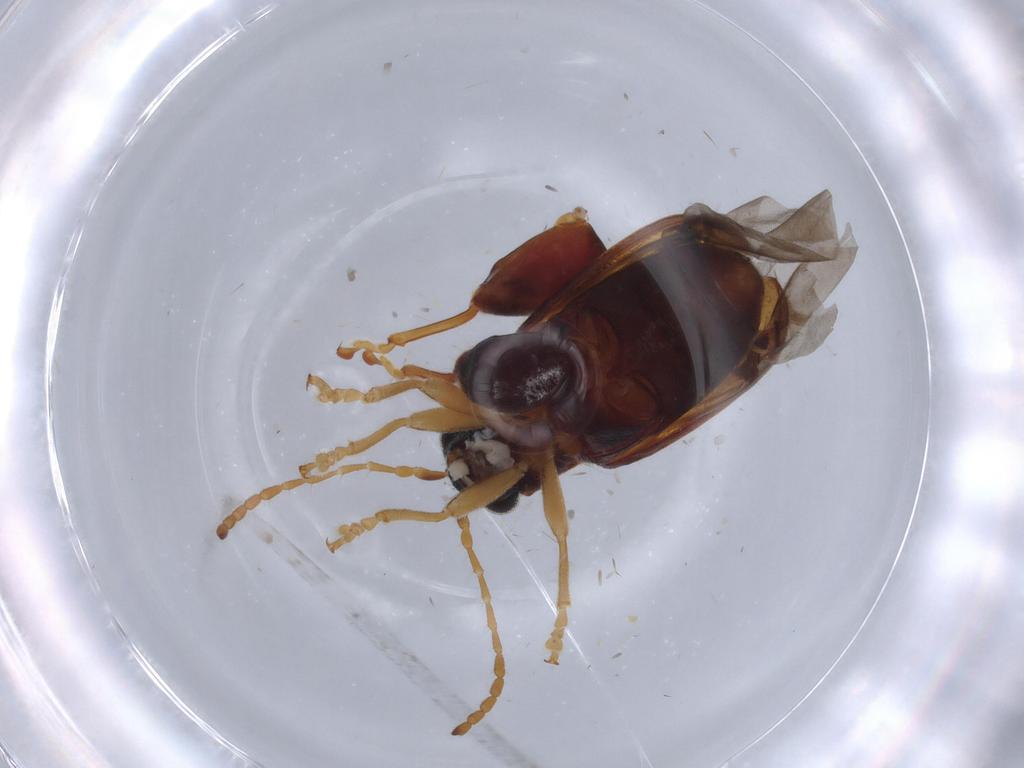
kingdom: Animalia
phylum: Arthropoda
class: Insecta
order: Coleoptera
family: Chrysomelidae
